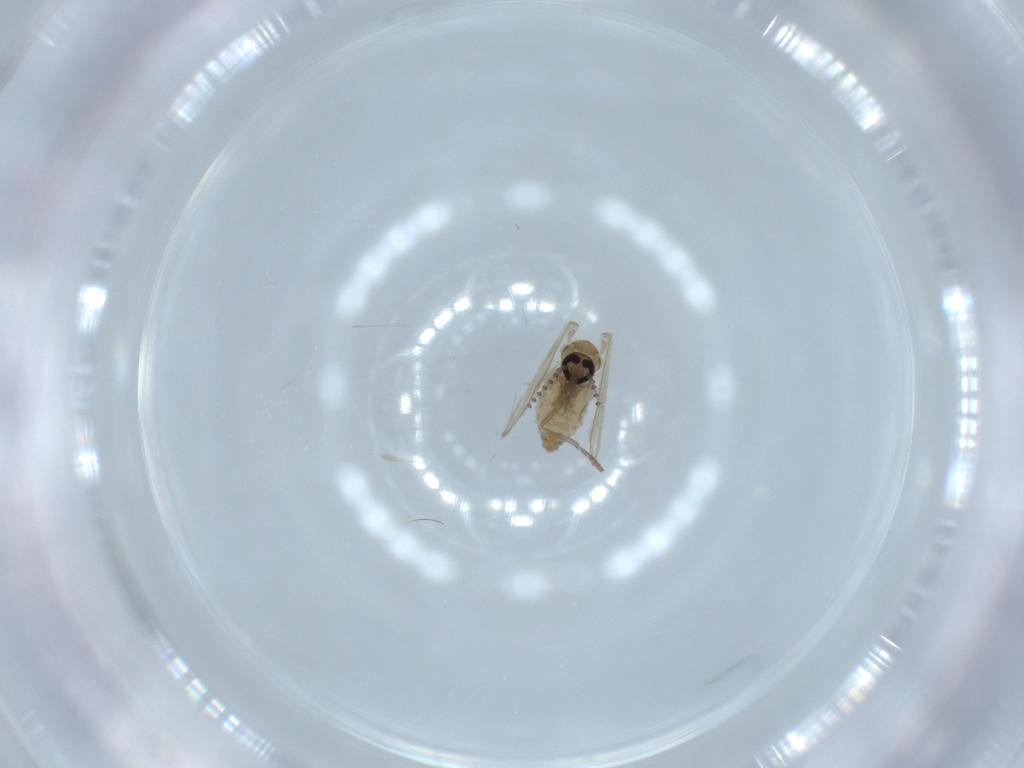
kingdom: Animalia
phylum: Arthropoda
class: Insecta
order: Diptera
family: Psychodidae
